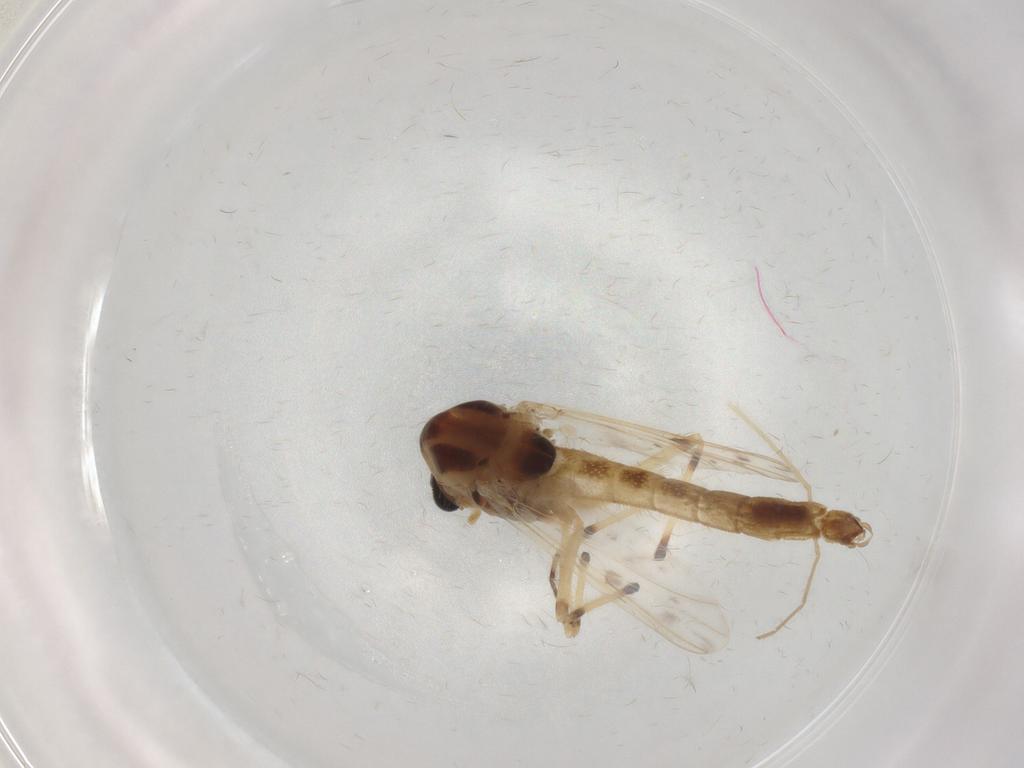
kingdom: Animalia
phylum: Arthropoda
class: Insecta
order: Diptera
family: Chironomidae
